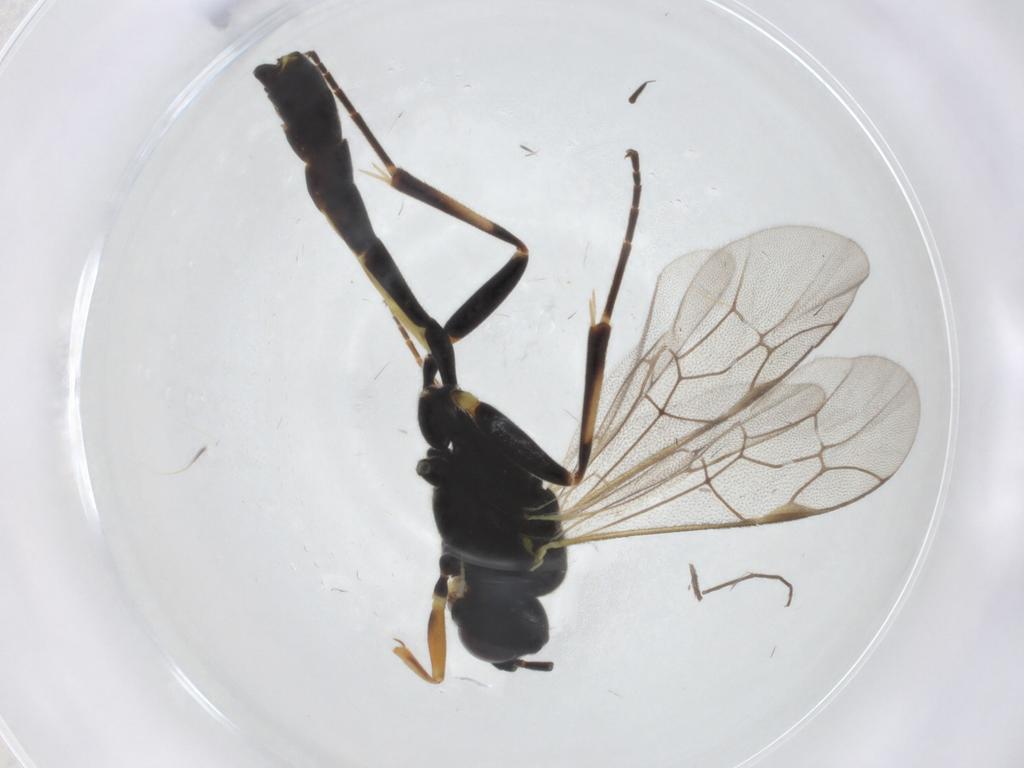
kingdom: Animalia
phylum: Arthropoda
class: Insecta
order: Hymenoptera
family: Ichneumonidae
